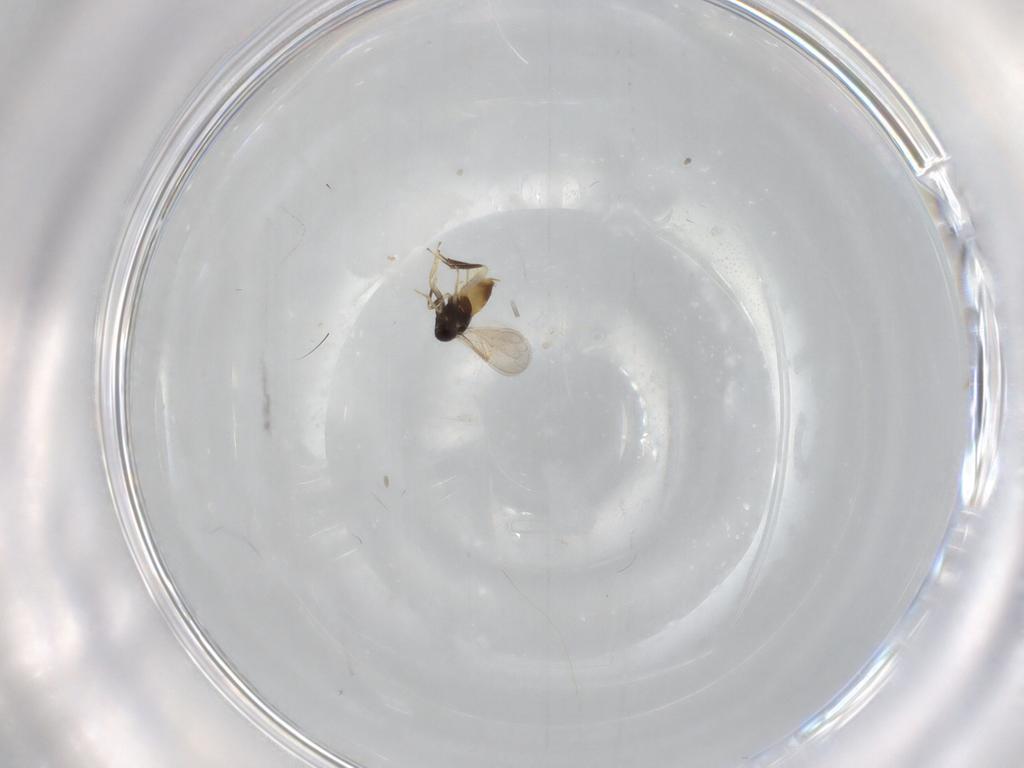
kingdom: Animalia
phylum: Arthropoda
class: Insecta
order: Hymenoptera
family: Aphelinidae
